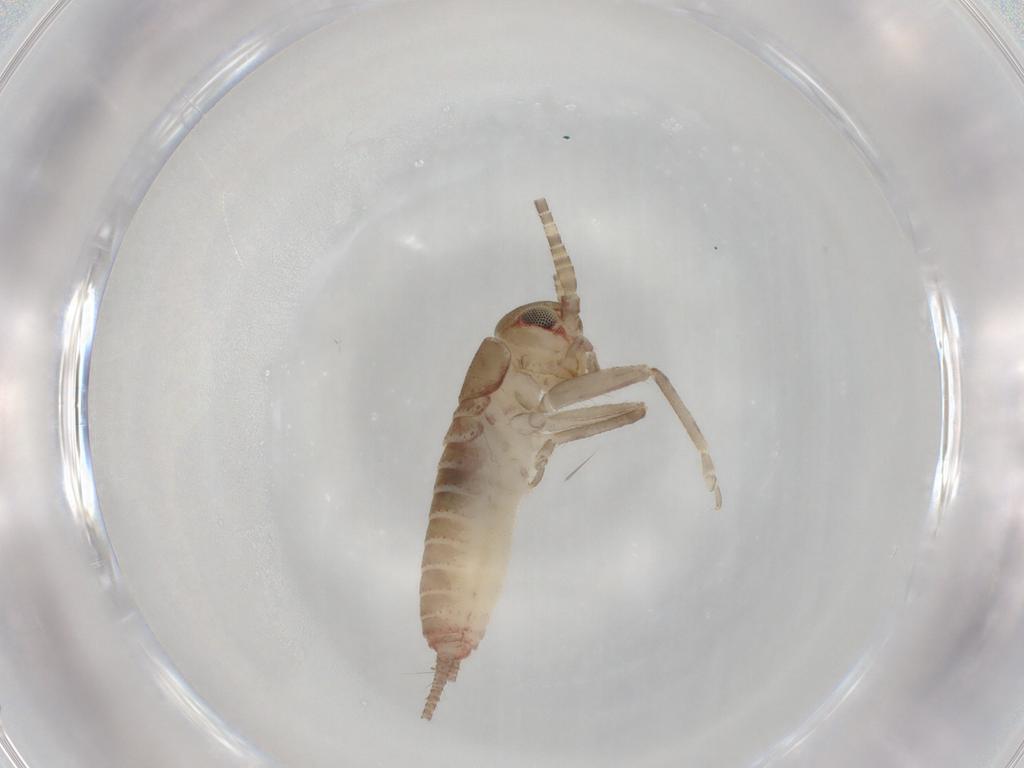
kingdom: Animalia
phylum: Arthropoda
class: Insecta
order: Orthoptera
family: Gryllidae
